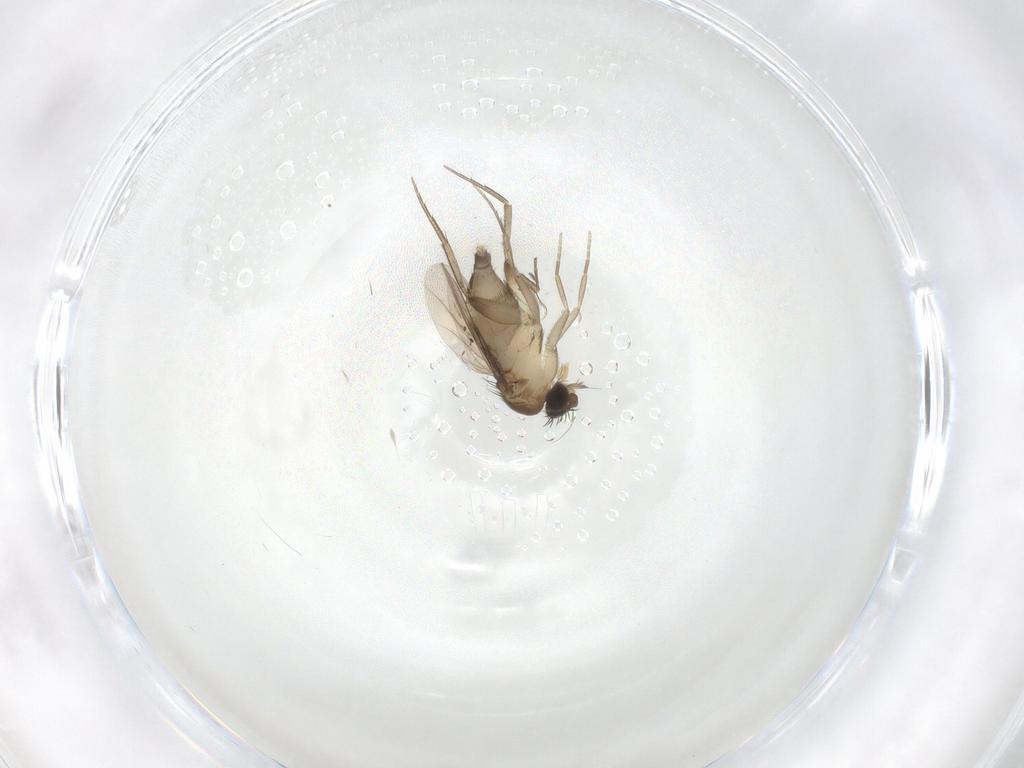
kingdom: Animalia
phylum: Arthropoda
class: Insecta
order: Diptera
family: Phoridae
